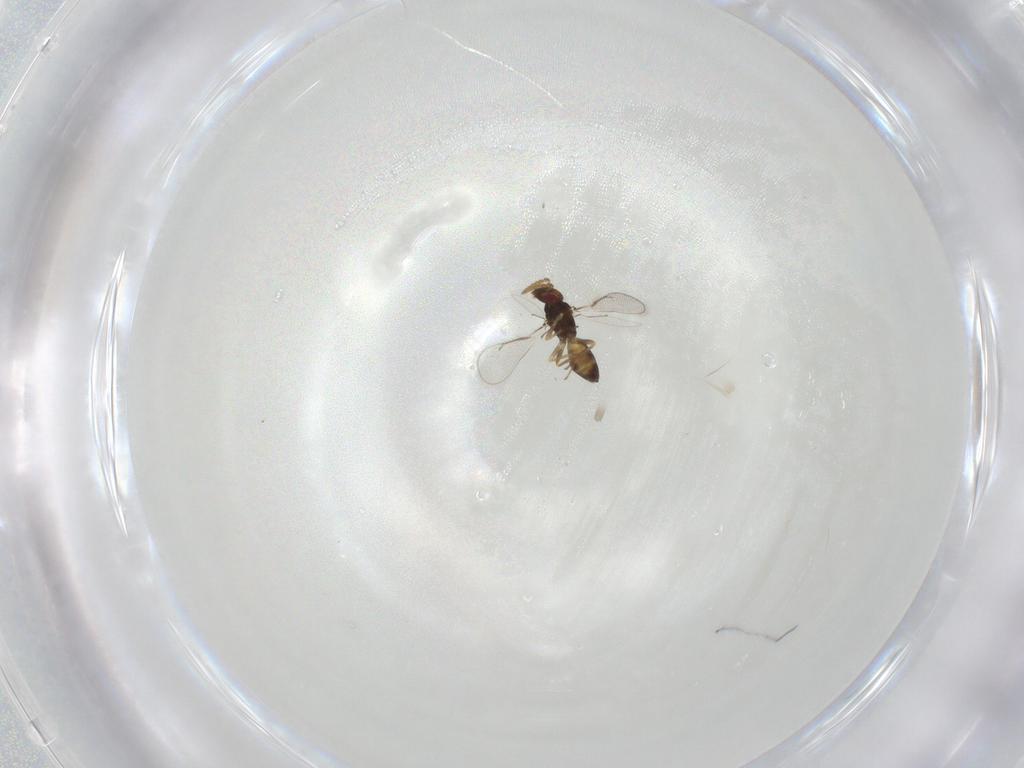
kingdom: Animalia
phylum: Arthropoda
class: Insecta
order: Hymenoptera
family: Eulophidae
